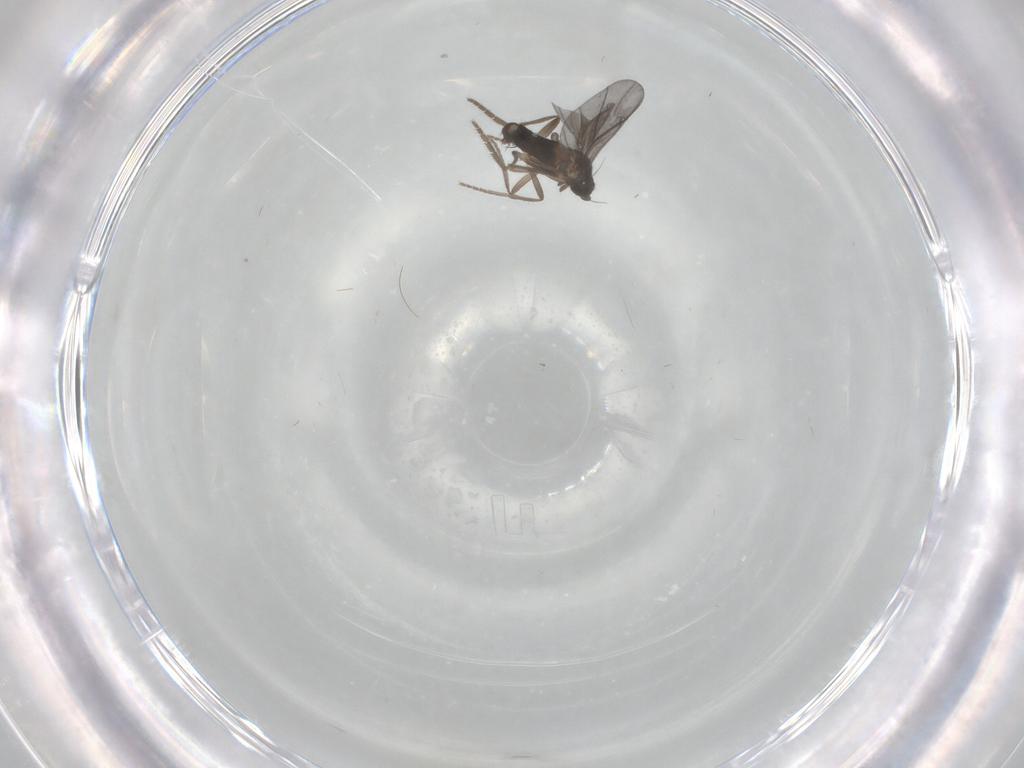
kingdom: Animalia
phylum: Arthropoda
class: Insecta
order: Diptera
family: Phoridae
